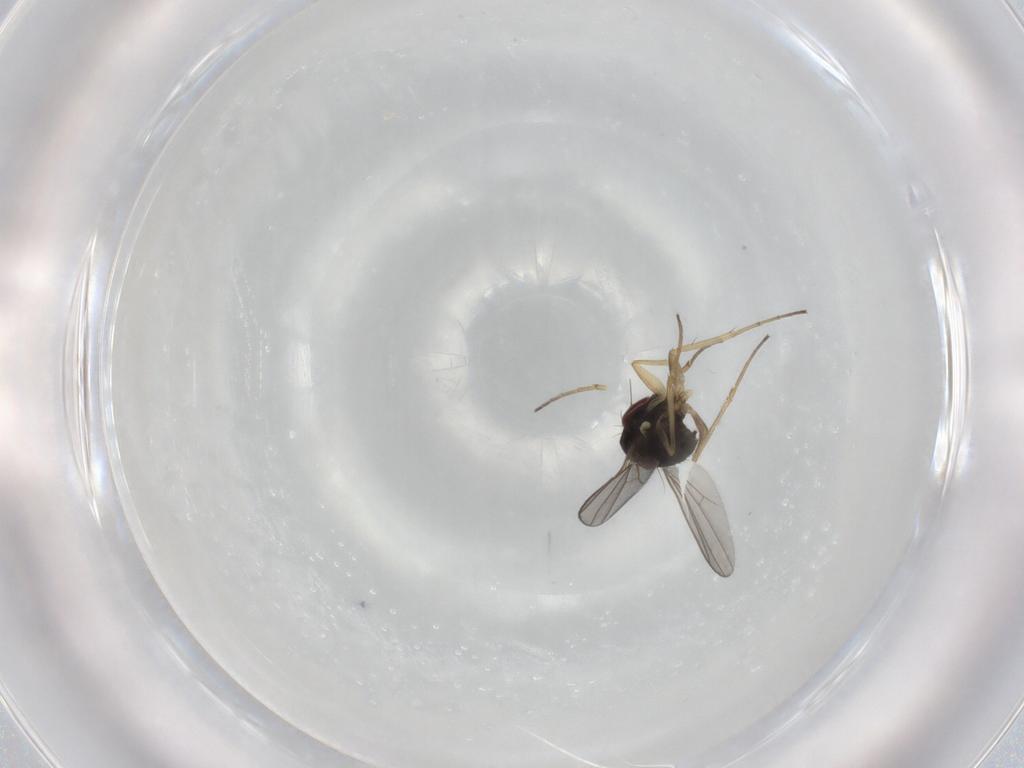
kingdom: Animalia
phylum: Arthropoda
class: Insecta
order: Diptera
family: Dolichopodidae
